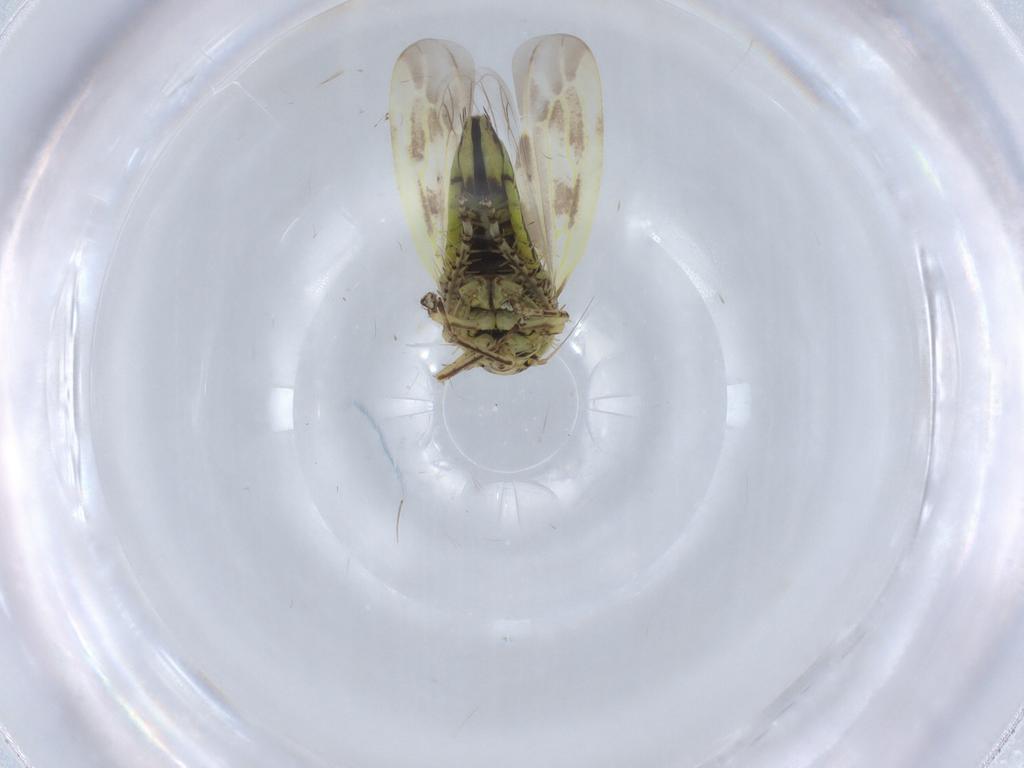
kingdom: Animalia
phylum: Arthropoda
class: Insecta
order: Hemiptera
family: Cicadellidae
